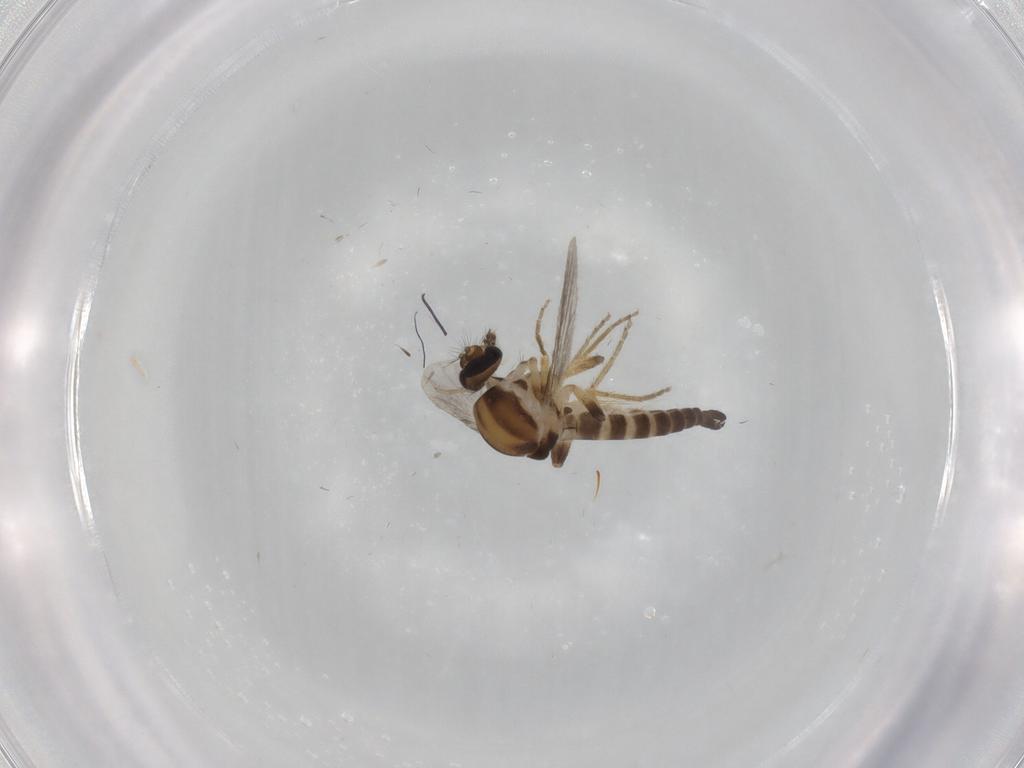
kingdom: Animalia
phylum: Arthropoda
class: Insecta
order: Diptera
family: Ceratopogonidae
